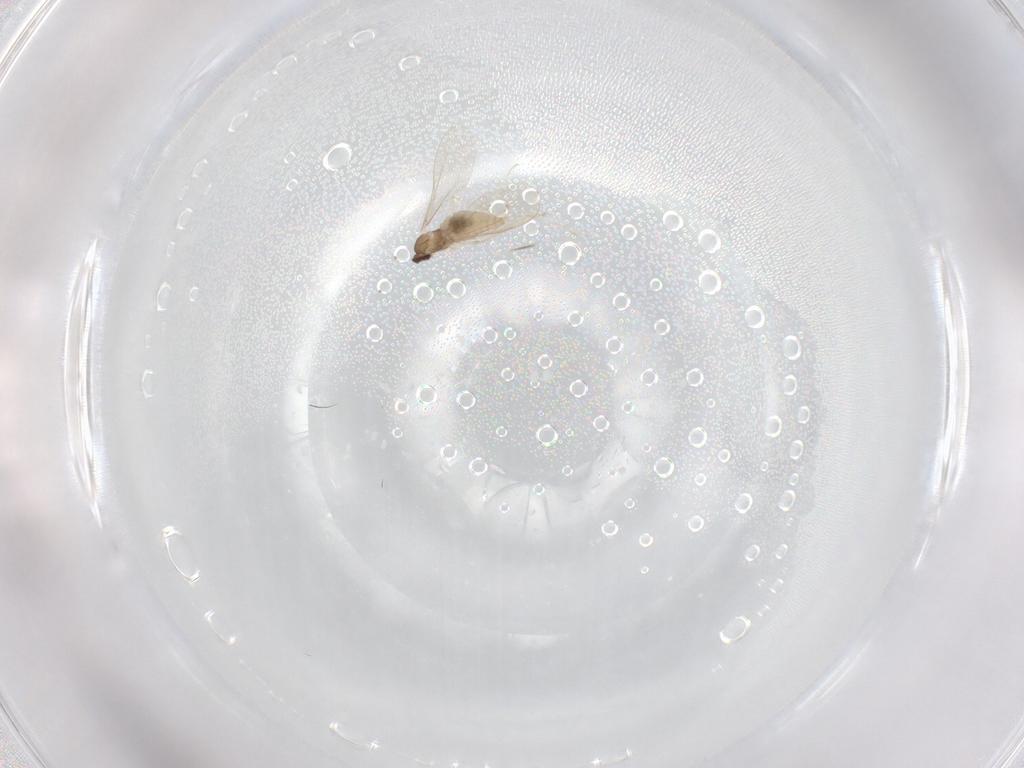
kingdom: Animalia
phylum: Arthropoda
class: Insecta
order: Diptera
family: Cecidomyiidae
